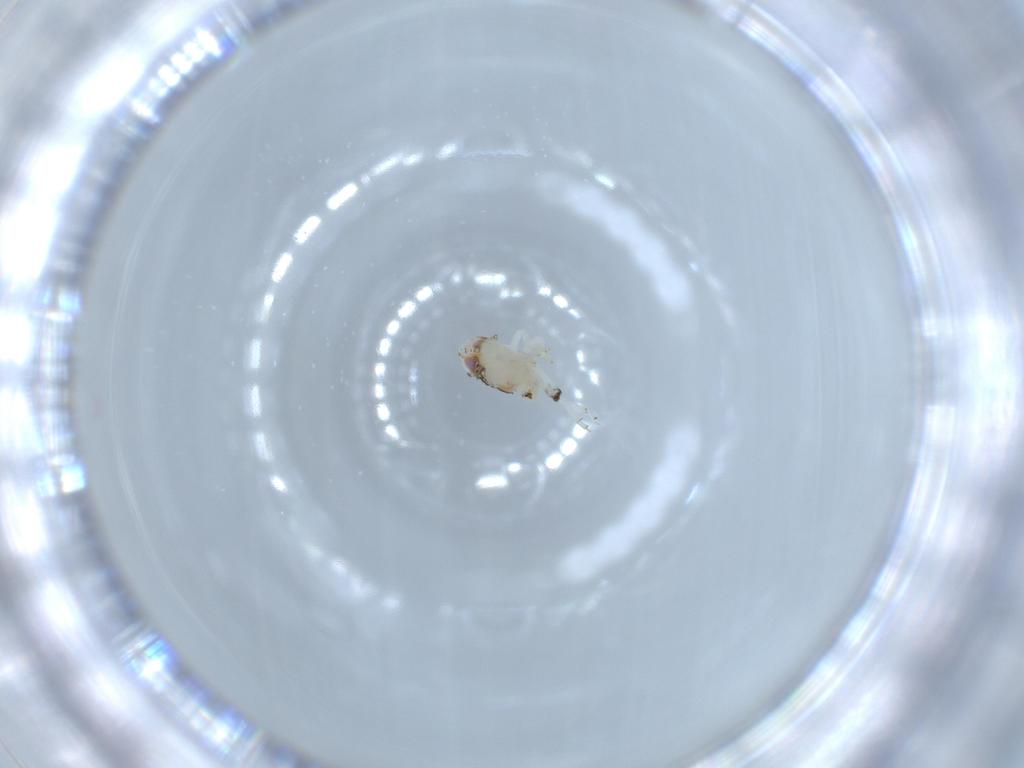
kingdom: Animalia
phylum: Arthropoda
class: Insecta
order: Hemiptera
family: Nogodinidae
